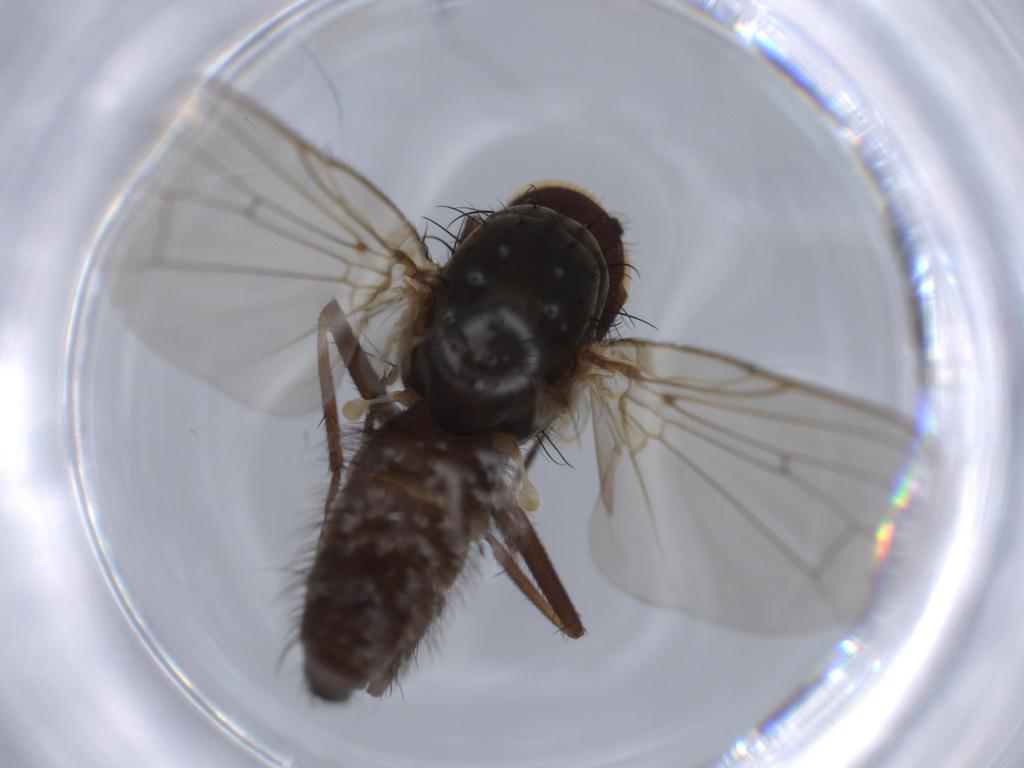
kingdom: Animalia
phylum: Arthropoda
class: Insecta
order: Diptera
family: Anthomyiidae
